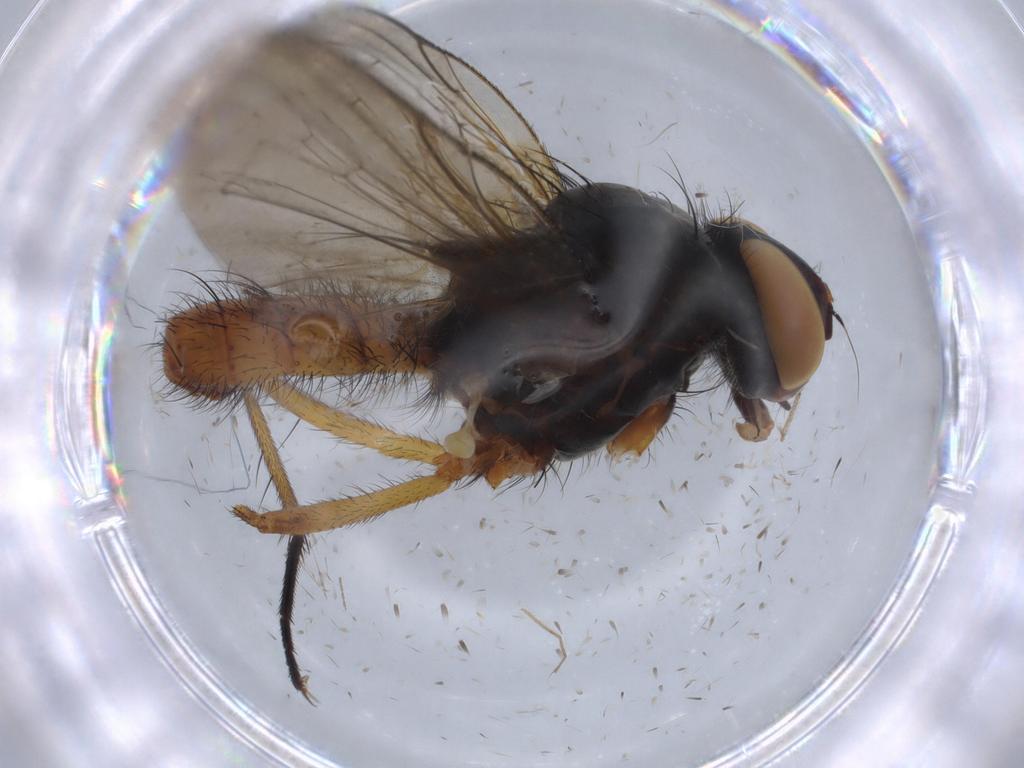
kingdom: Animalia
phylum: Arthropoda
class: Insecta
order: Diptera
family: Anthomyiidae
